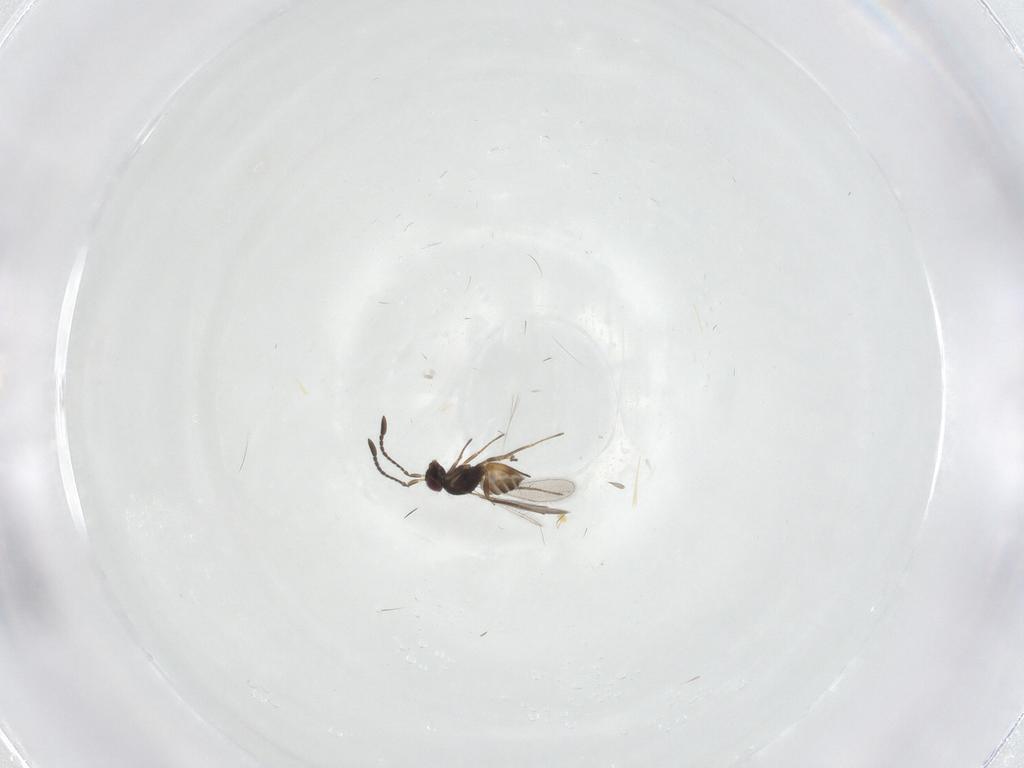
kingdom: Animalia
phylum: Arthropoda
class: Insecta
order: Hymenoptera
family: Mymaridae
